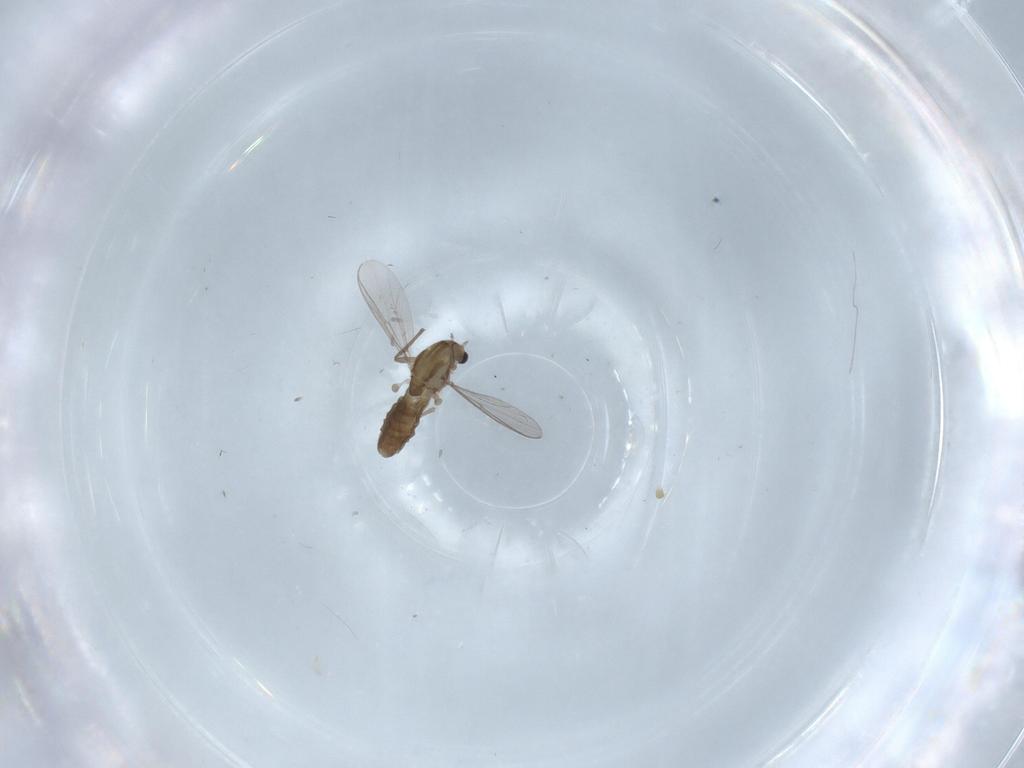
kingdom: Animalia
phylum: Arthropoda
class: Insecta
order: Diptera
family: Chironomidae
